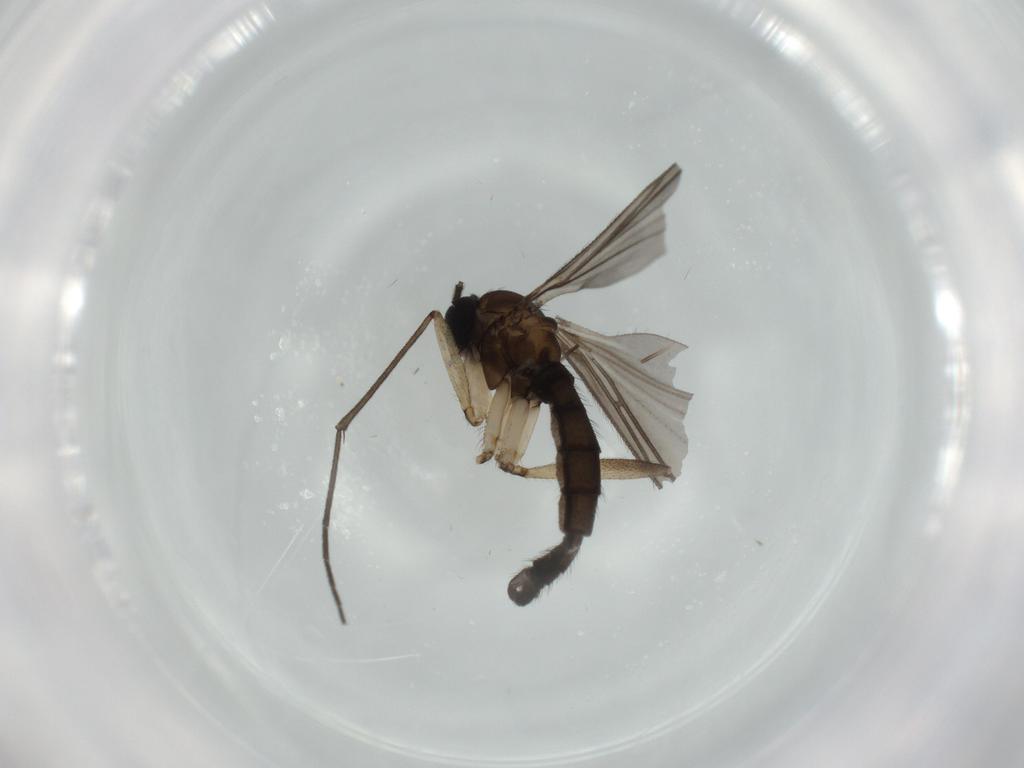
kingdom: Animalia
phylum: Arthropoda
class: Insecta
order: Diptera
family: Sciaridae
